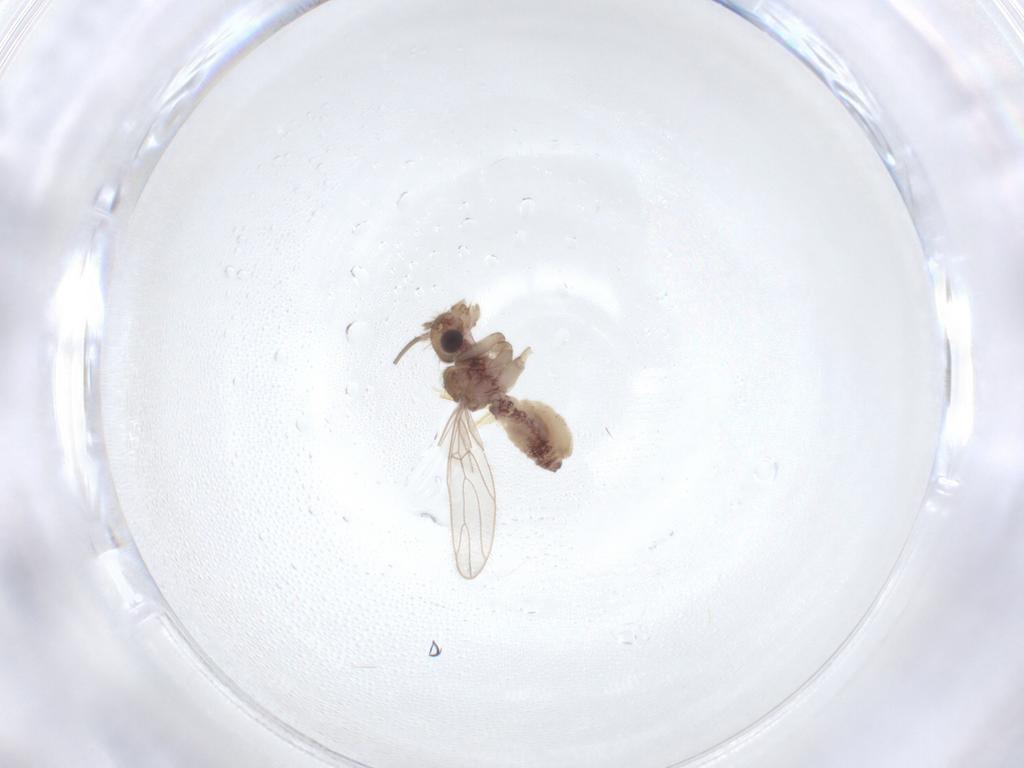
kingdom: Animalia
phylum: Arthropoda
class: Insecta
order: Psocodea
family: Cladiopsocidae
